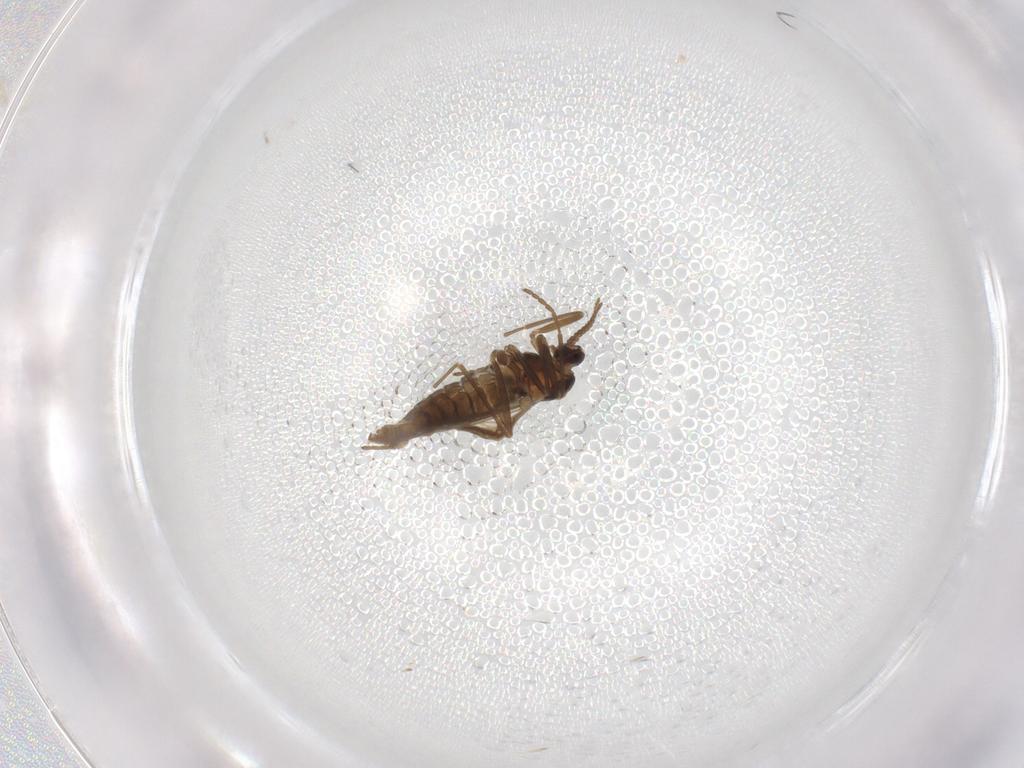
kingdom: Animalia
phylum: Arthropoda
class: Insecta
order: Diptera
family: Cecidomyiidae
